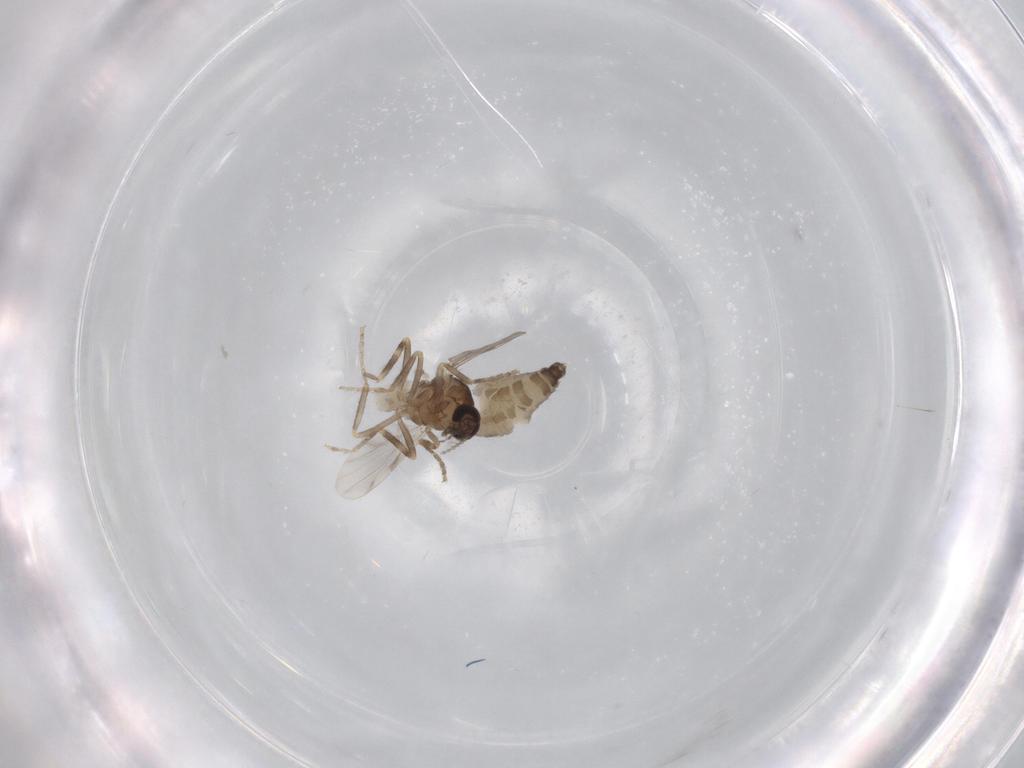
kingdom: Animalia
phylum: Arthropoda
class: Insecta
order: Diptera
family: Ceratopogonidae
